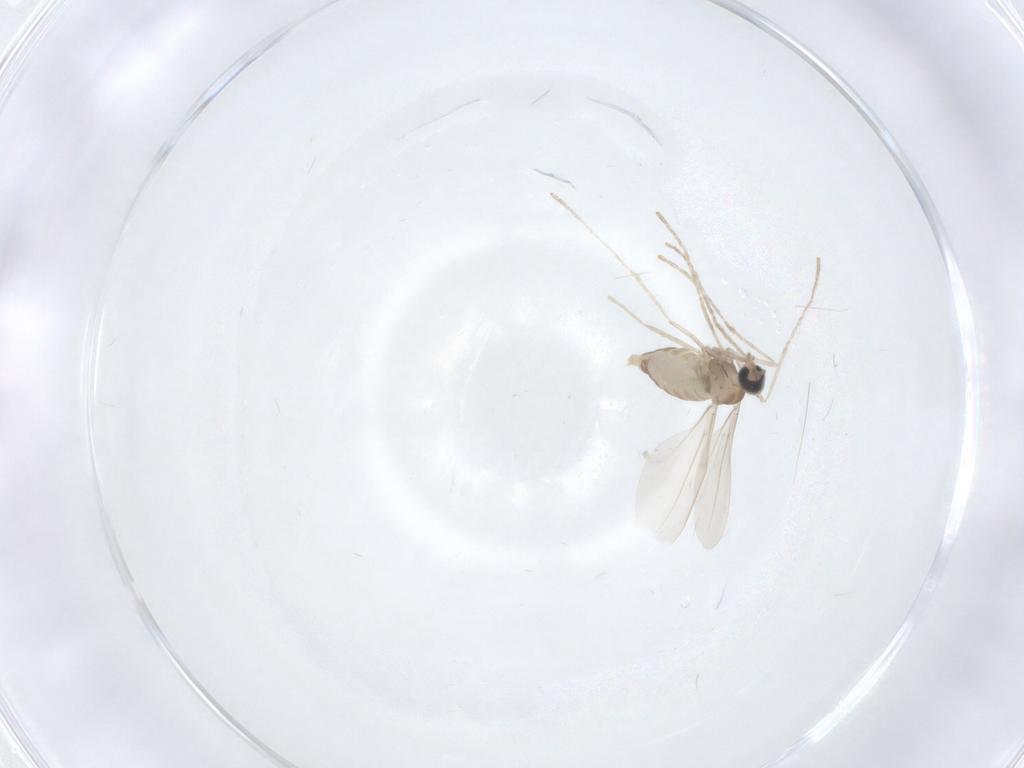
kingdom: Animalia
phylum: Arthropoda
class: Insecta
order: Diptera
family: Cecidomyiidae
